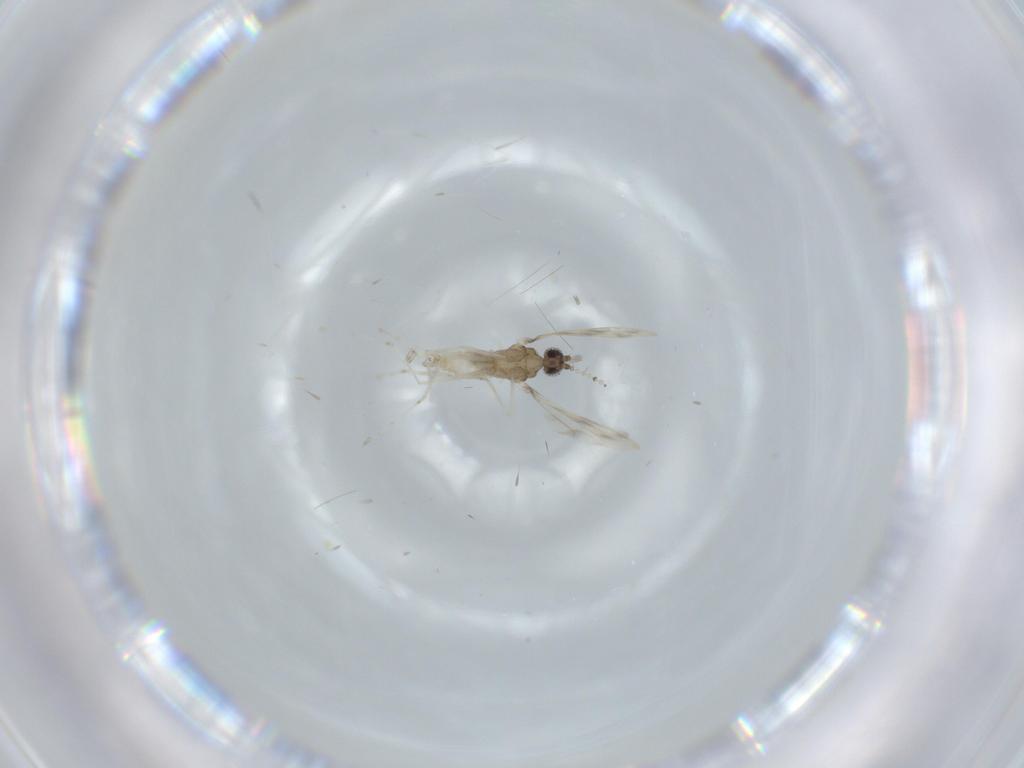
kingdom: Animalia
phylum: Arthropoda
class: Insecta
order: Diptera
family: Cecidomyiidae
